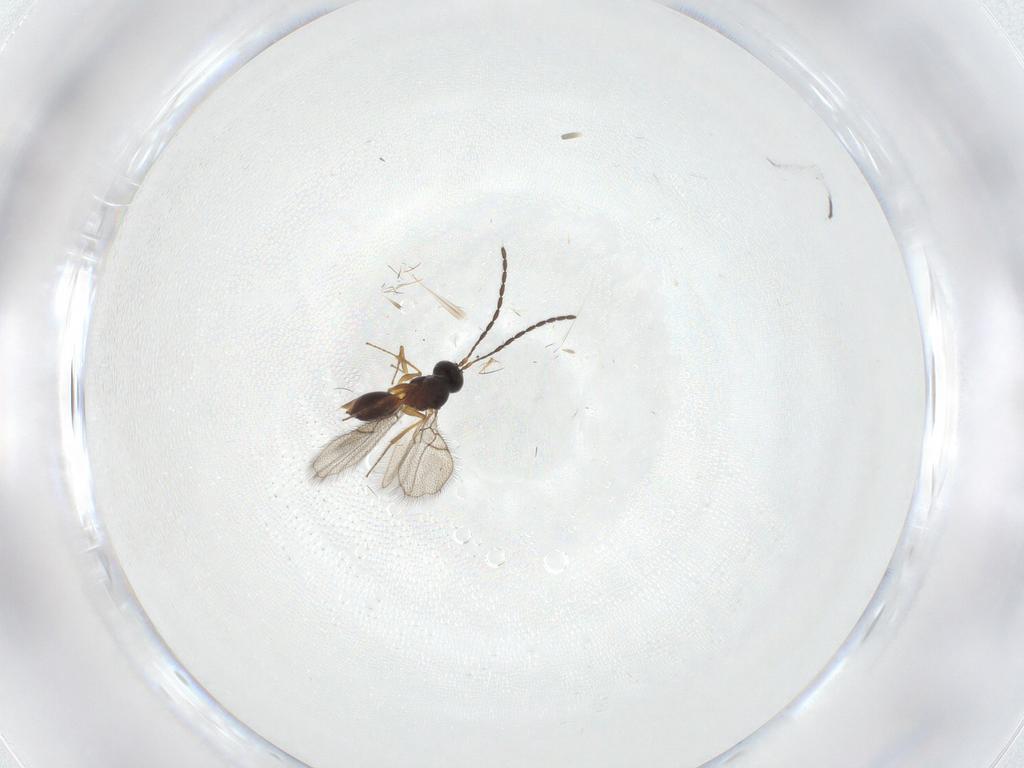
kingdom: Animalia
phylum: Arthropoda
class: Insecta
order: Hymenoptera
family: Figitidae
